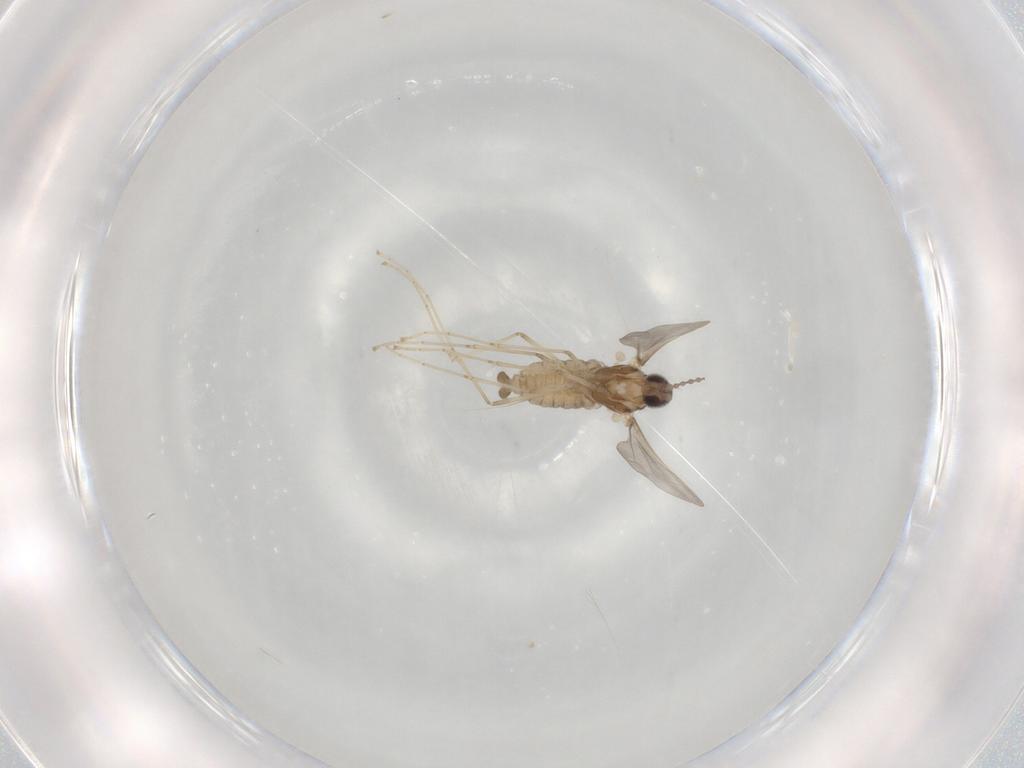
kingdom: Animalia
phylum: Arthropoda
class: Insecta
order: Diptera
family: Cecidomyiidae
